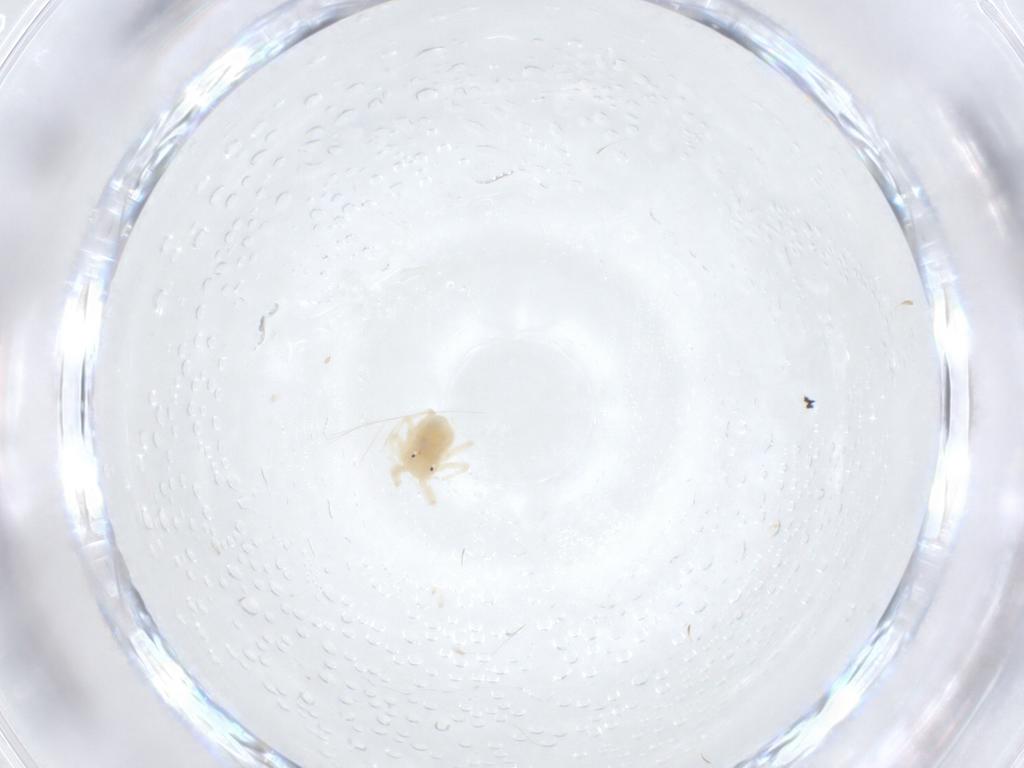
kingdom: Animalia
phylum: Arthropoda
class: Arachnida
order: Trombidiformes
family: Anystidae
